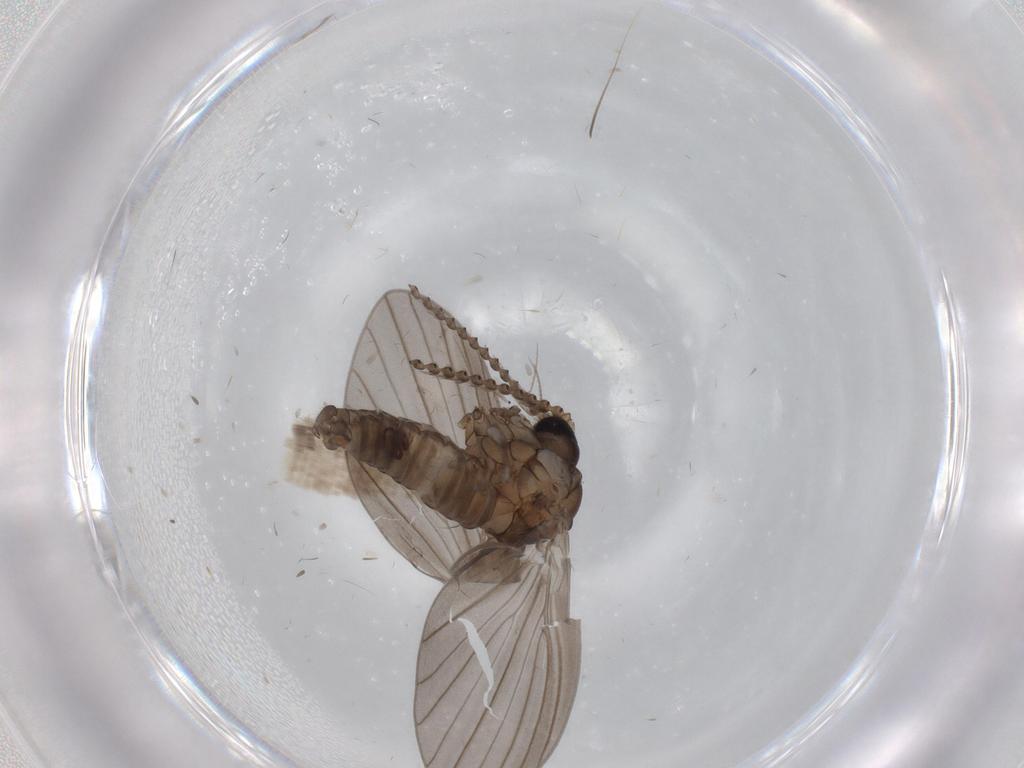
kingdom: Animalia
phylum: Arthropoda
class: Insecta
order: Diptera
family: Psychodidae
